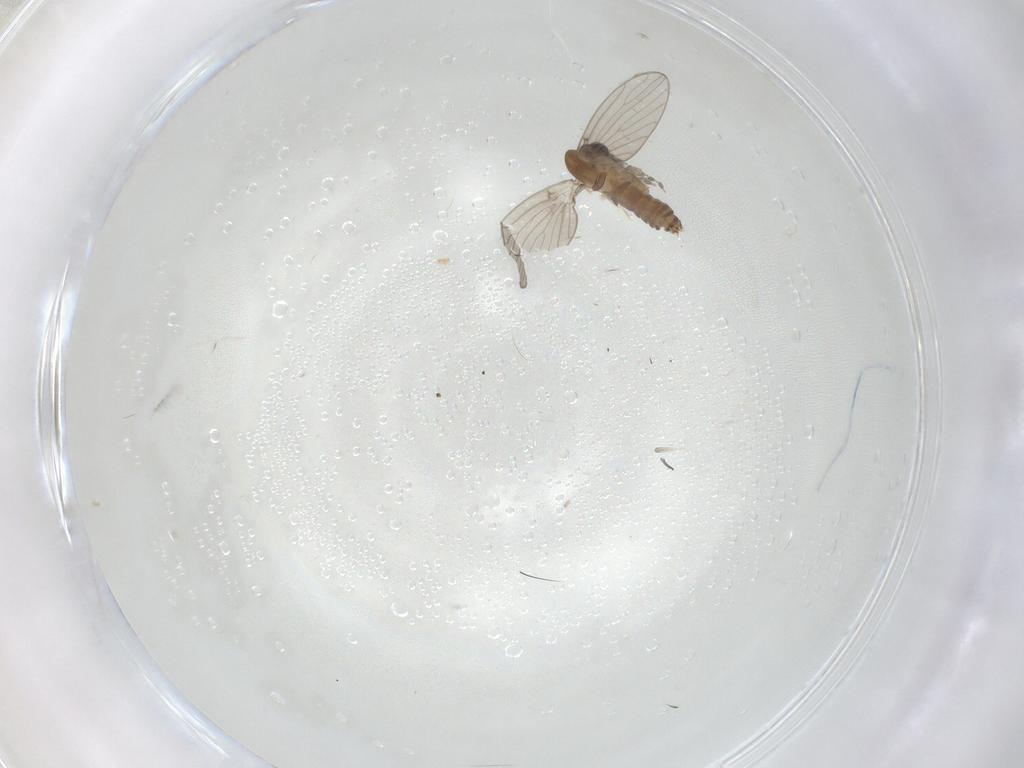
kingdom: Animalia
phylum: Arthropoda
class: Insecta
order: Diptera
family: Psychodidae
